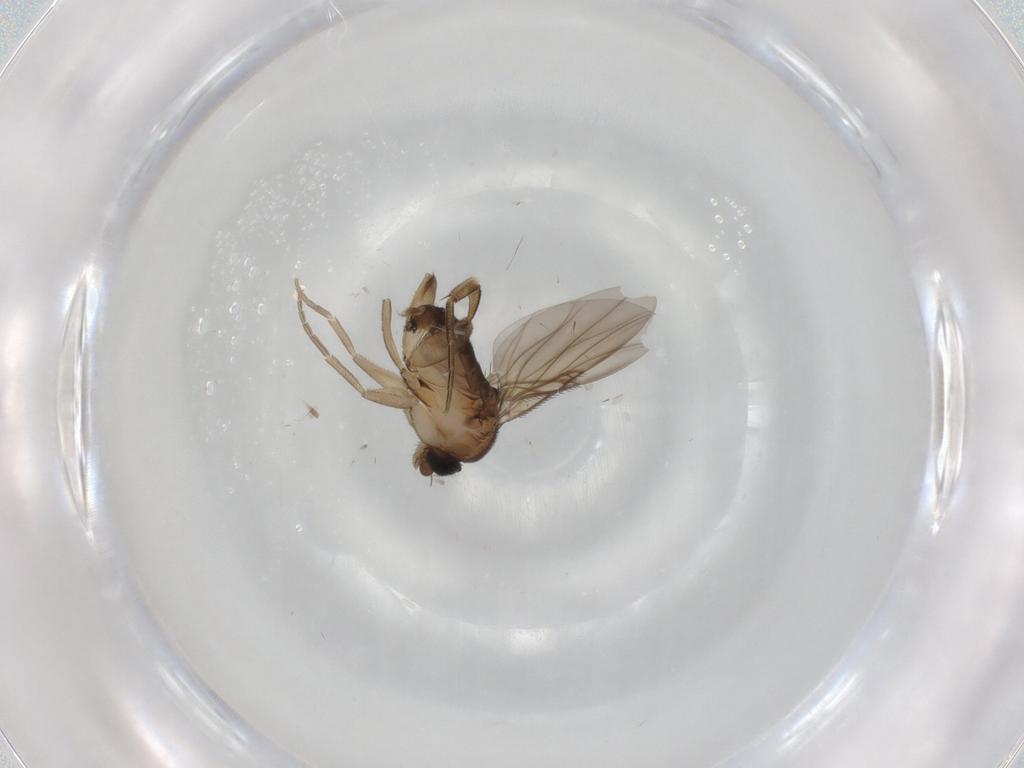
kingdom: Animalia
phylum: Arthropoda
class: Insecta
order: Diptera
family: Phoridae
